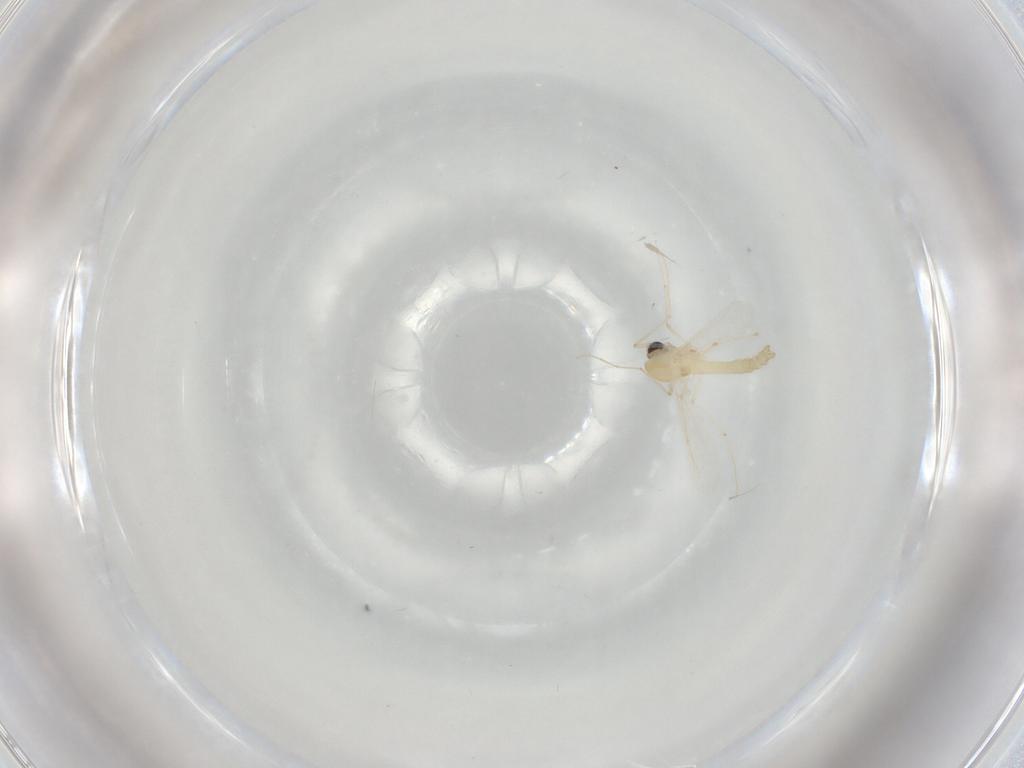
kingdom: Animalia
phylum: Arthropoda
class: Insecta
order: Diptera
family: Chironomidae
